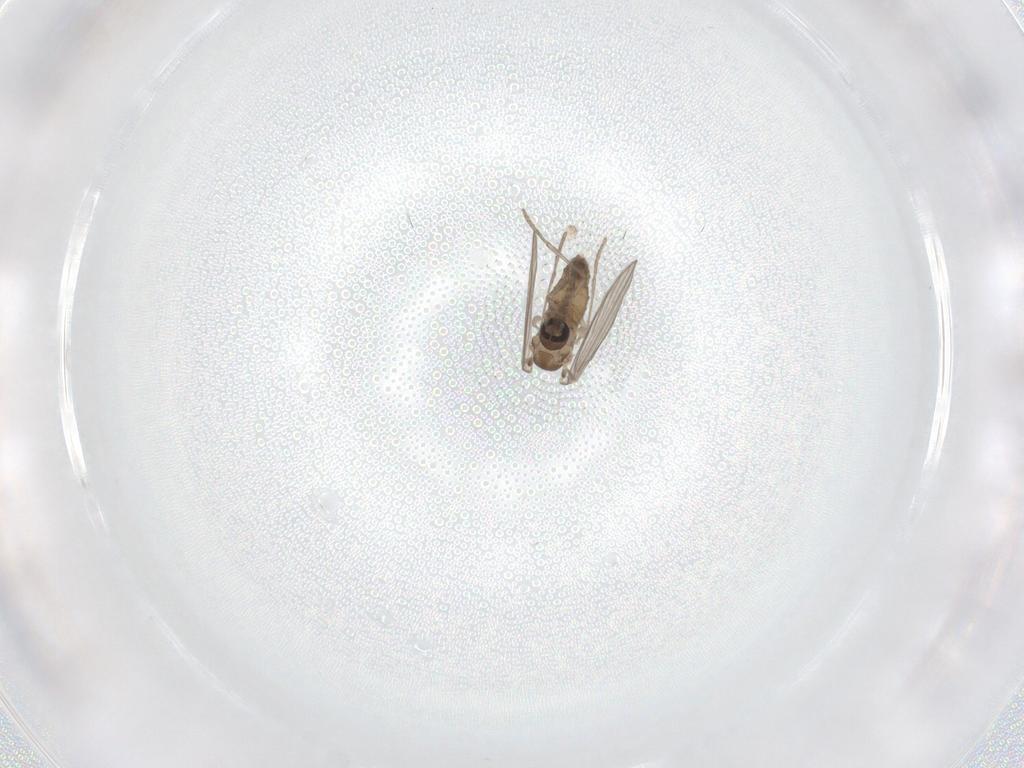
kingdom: Animalia
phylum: Arthropoda
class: Insecta
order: Diptera
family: Psychodidae
